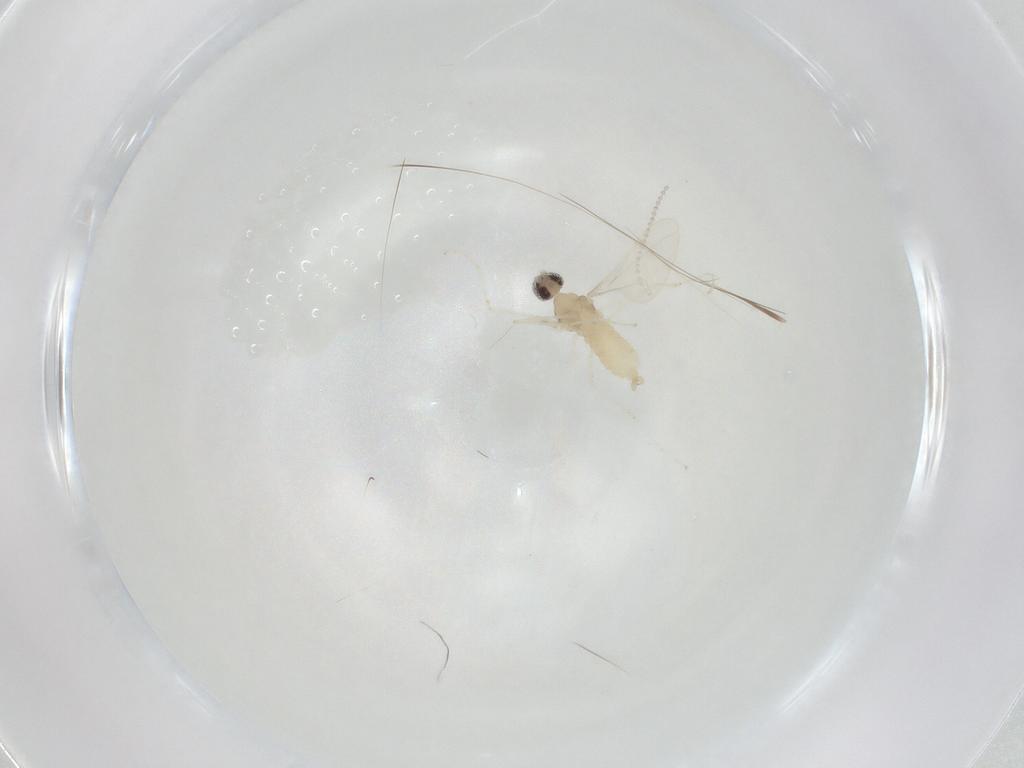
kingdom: Animalia
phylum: Arthropoda
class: Insecta
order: Diptera
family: Cecidomyiidae
